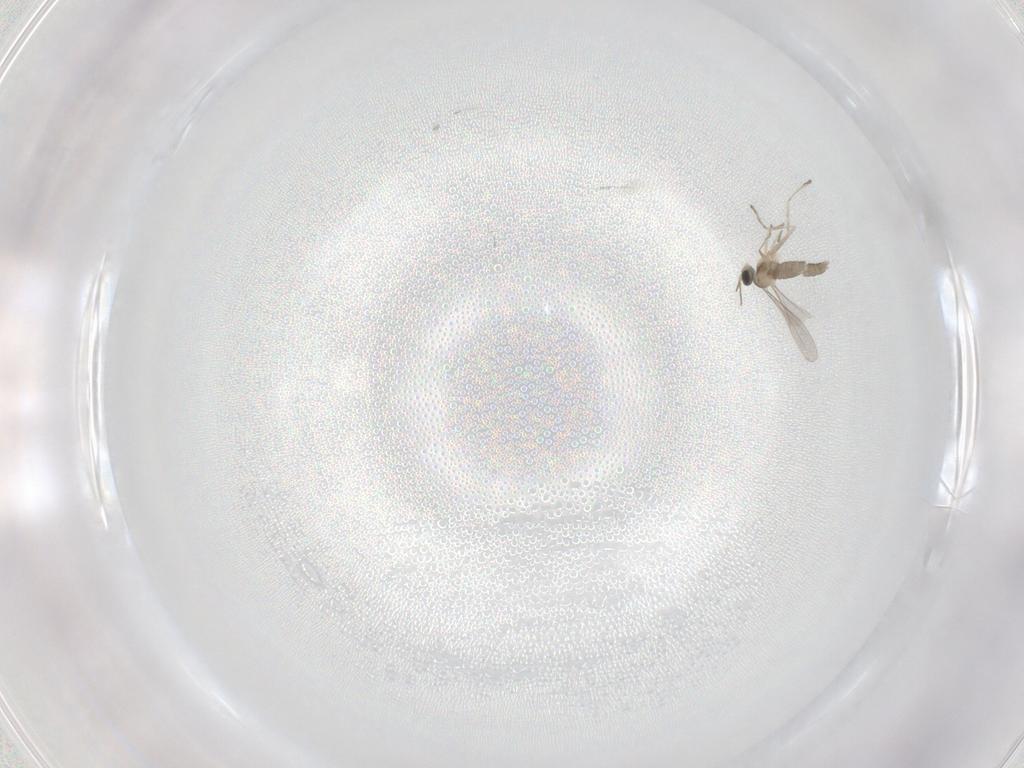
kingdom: Animalia
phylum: Arthropoda
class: Insecta
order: Diptera
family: Cecidomyiidae
